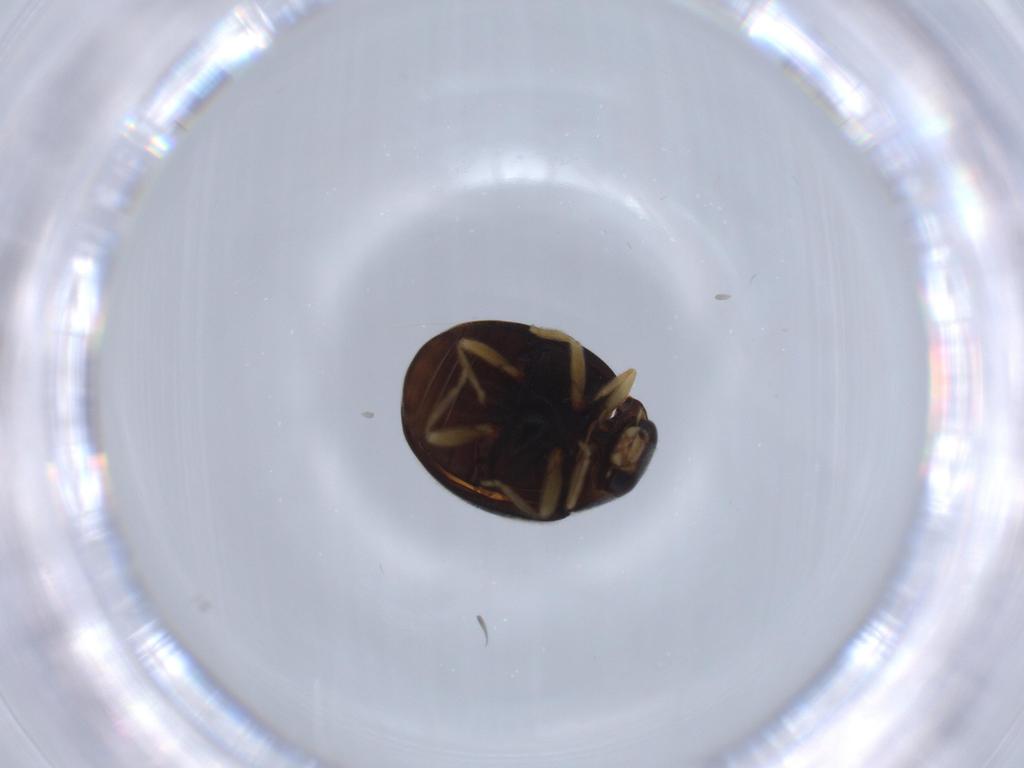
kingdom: Animalia
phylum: Arthropoda
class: Insecta
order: Coleoptera
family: Coccinellidae
